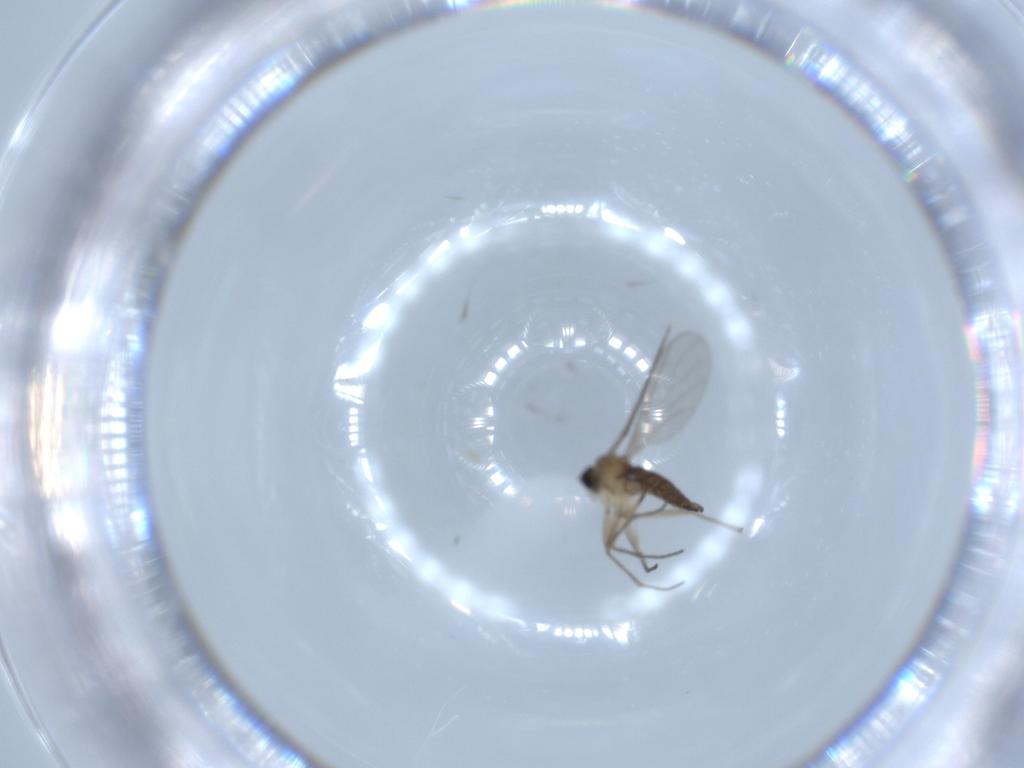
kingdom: Animalia
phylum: Arthropoda
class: Insecta
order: Diptera
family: Sciaridae
